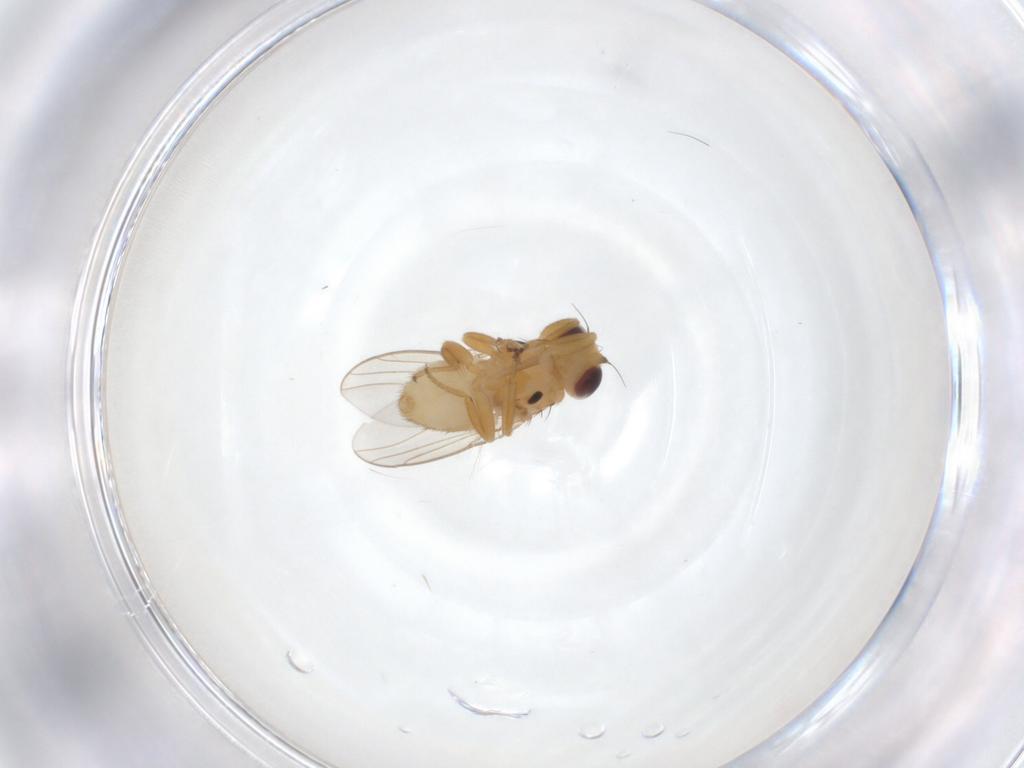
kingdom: Animalia
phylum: Arthropoda
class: Insecta
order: Diptera
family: Chloropidae
